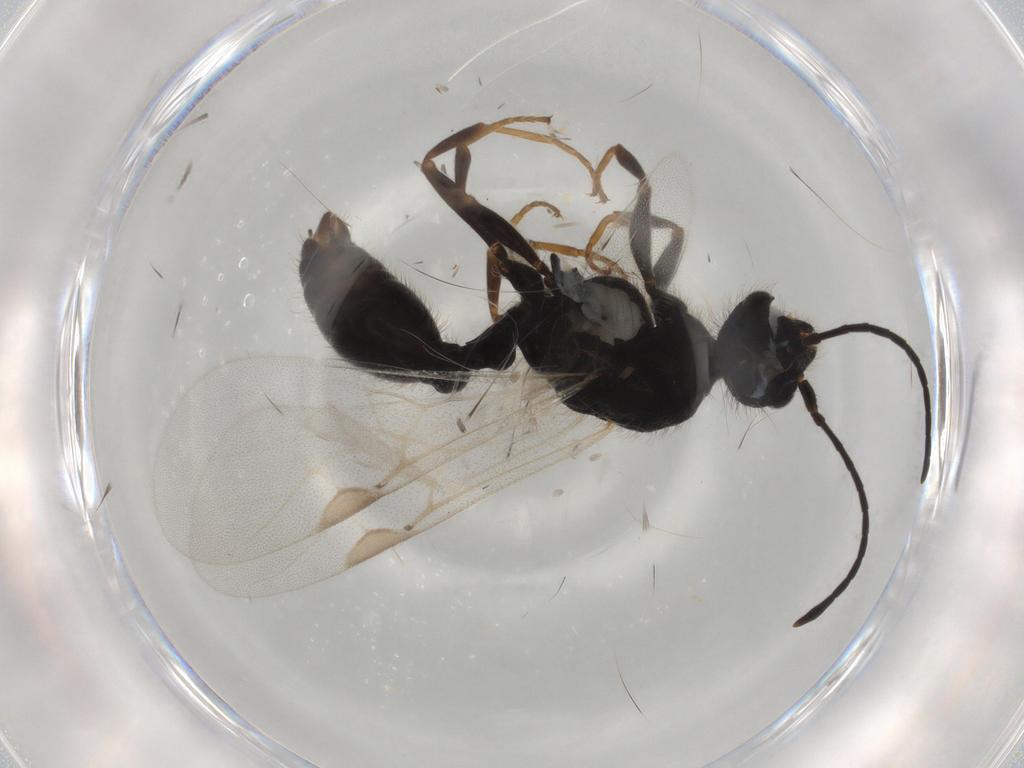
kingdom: Animalia
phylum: Arthropoda
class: Insecta
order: Hymenoptera
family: Formicidae
